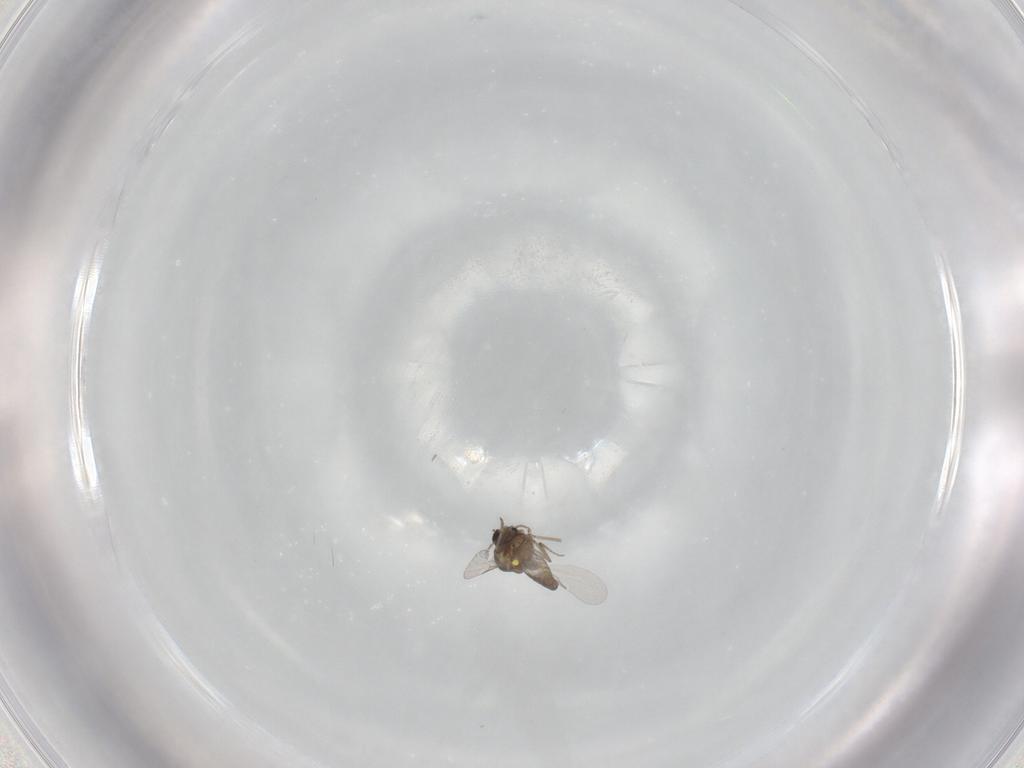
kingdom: Animalia
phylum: Arthropoda
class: Insecta
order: Diptera
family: Ceratopogonidae
